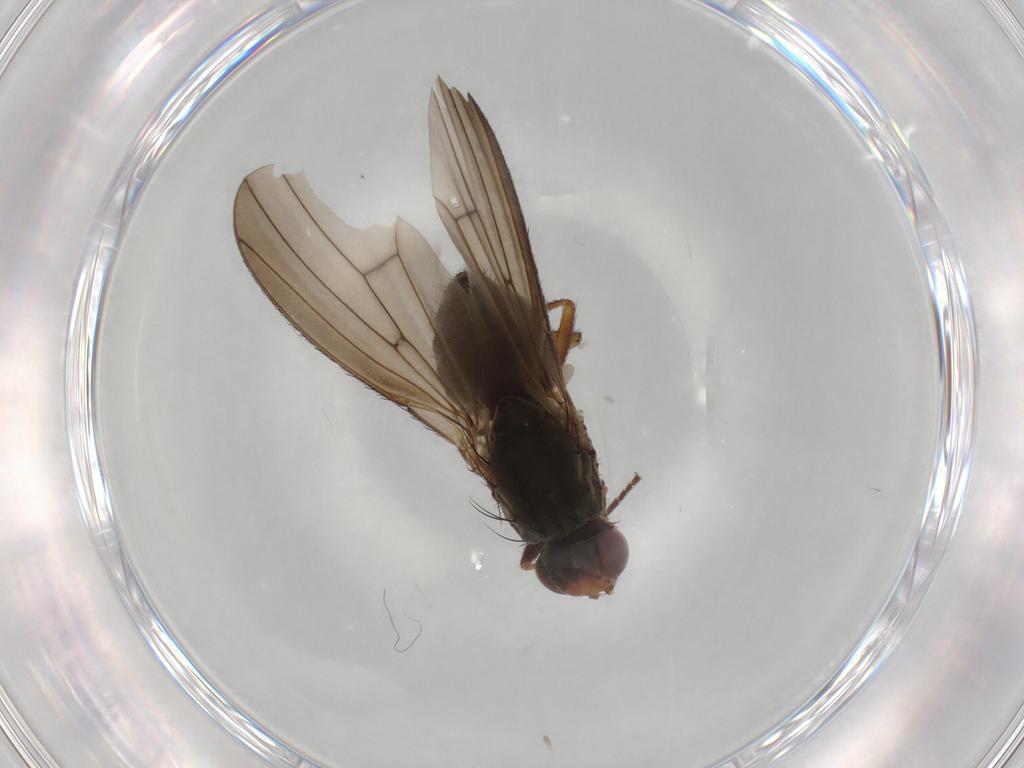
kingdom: Animalia
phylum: Arthropoda
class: Insecta
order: Diptera
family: Heleomyzidae
